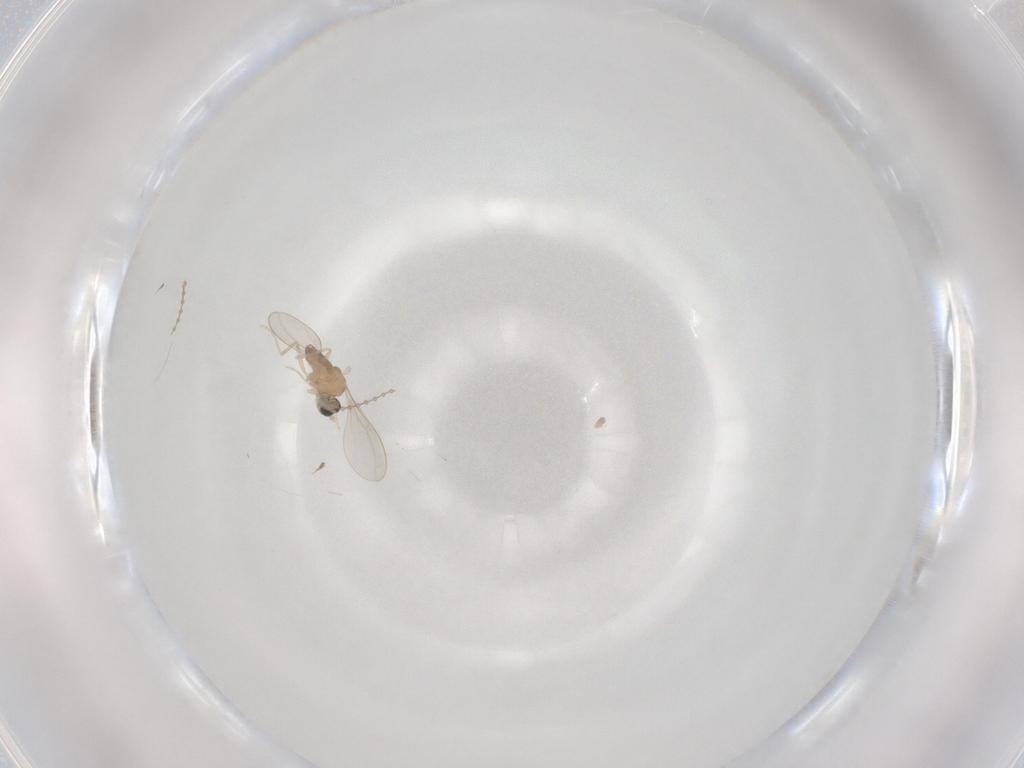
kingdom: Animalia
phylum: Arthropoda
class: Insecta
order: Diptera
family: Cecidomyiidae
